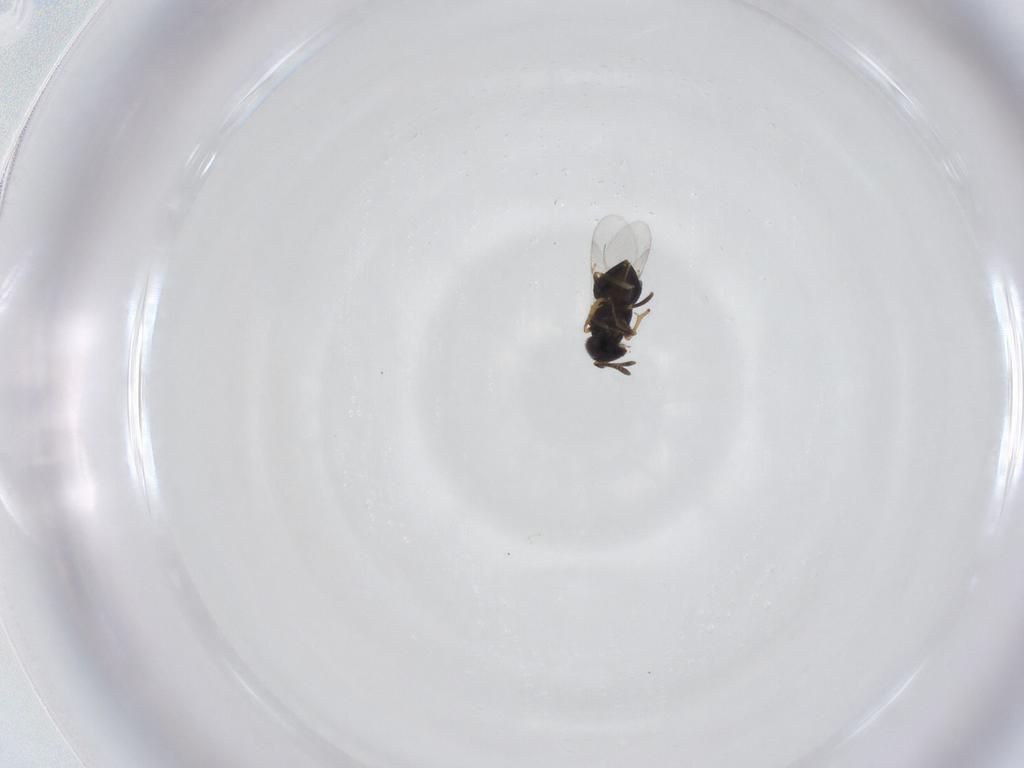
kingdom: Animalia
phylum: Arthropoda
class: Insecta
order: Hymenoptera
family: Encyrtidae
